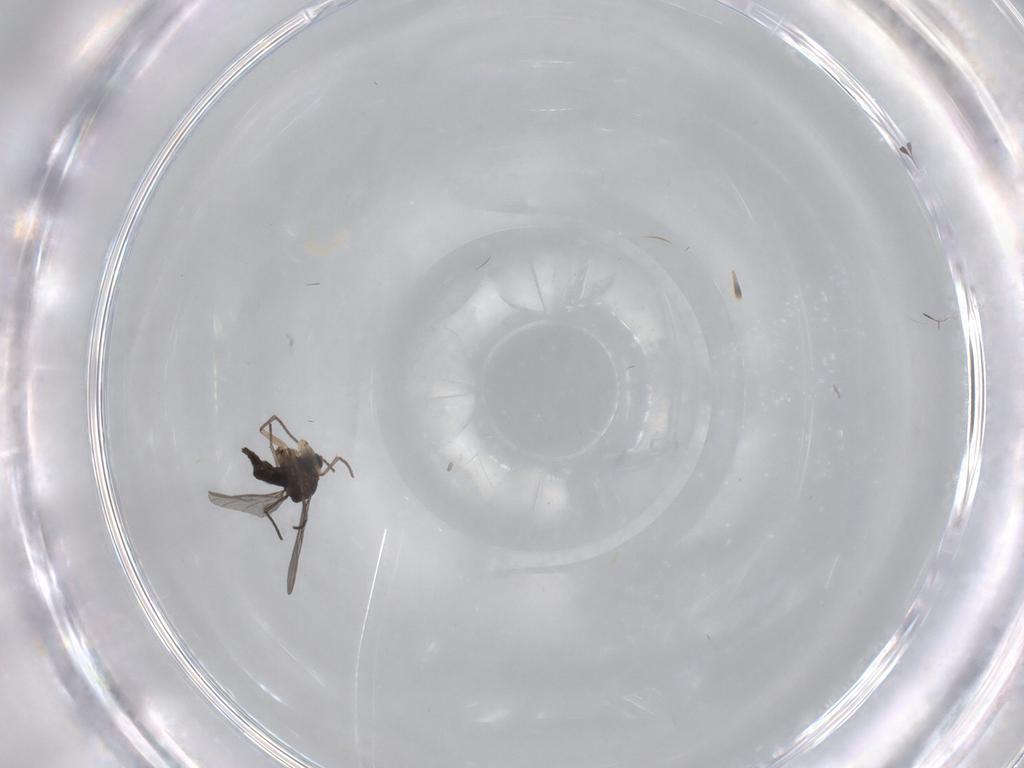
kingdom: Animalia
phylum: Arthropoda
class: Insecta
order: Diptera
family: Sciaridae
